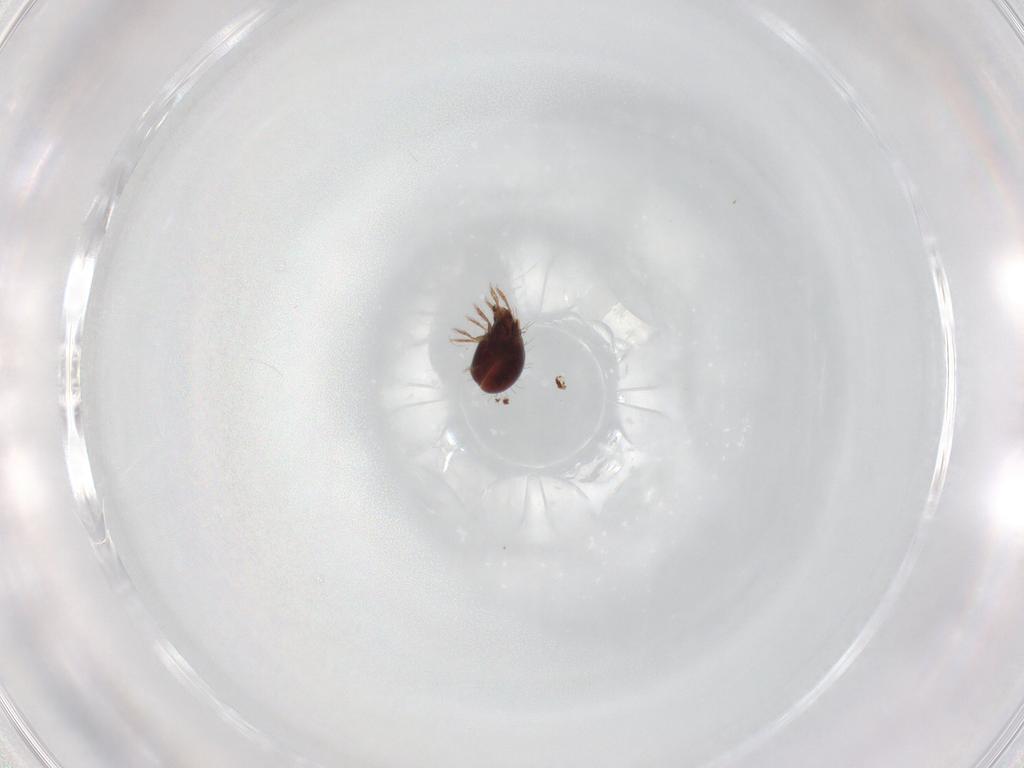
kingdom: Animalia
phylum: Arthropoda
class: Arachnida
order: Sarcoptiformes
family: Humerobatidae
